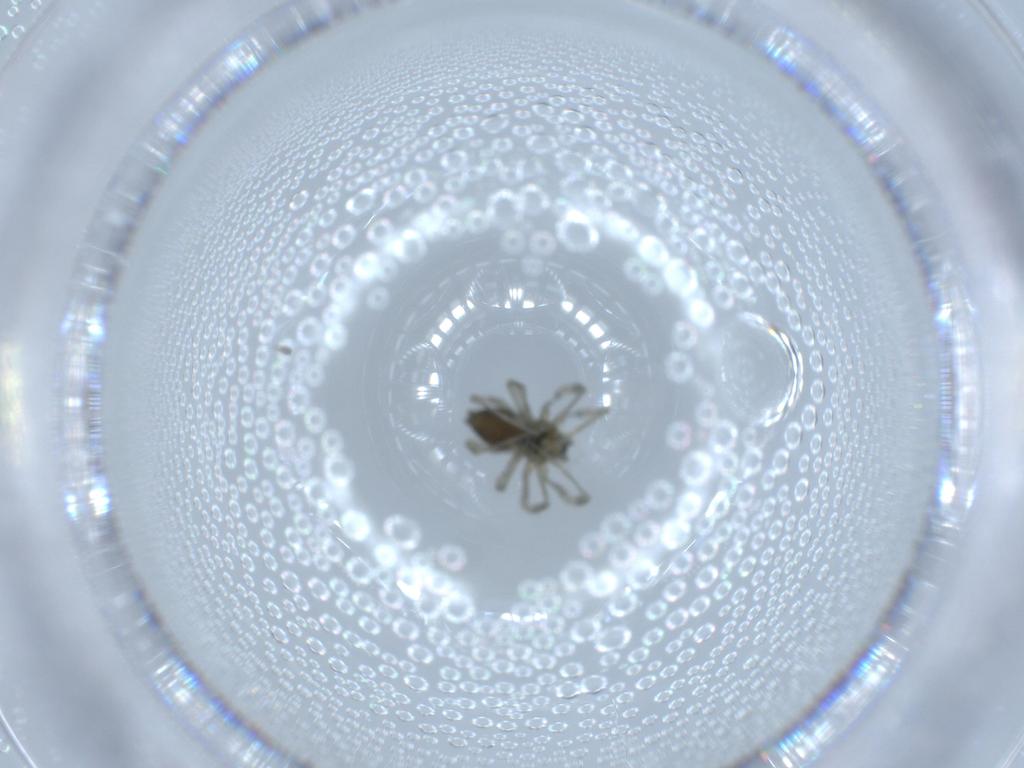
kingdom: Animalia
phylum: Arthropoda
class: Arachnida
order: Araneae
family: Linyphiidae
